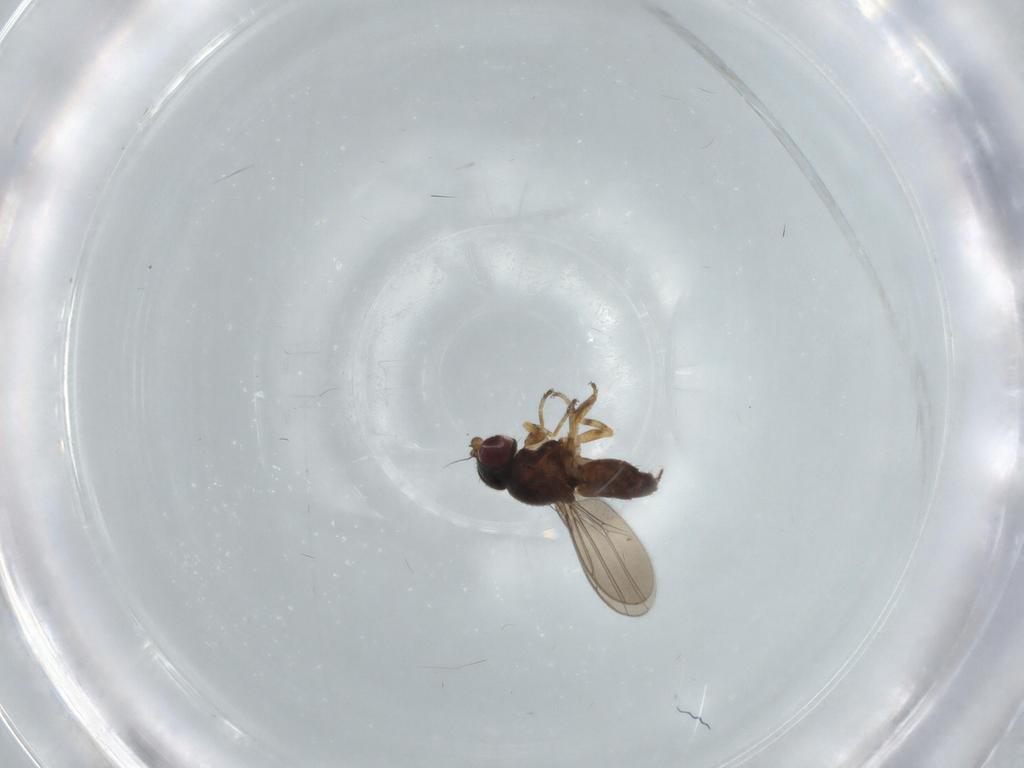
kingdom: Animalia
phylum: Arthropoda
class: Insecta
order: Diptera
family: Chloropidae
